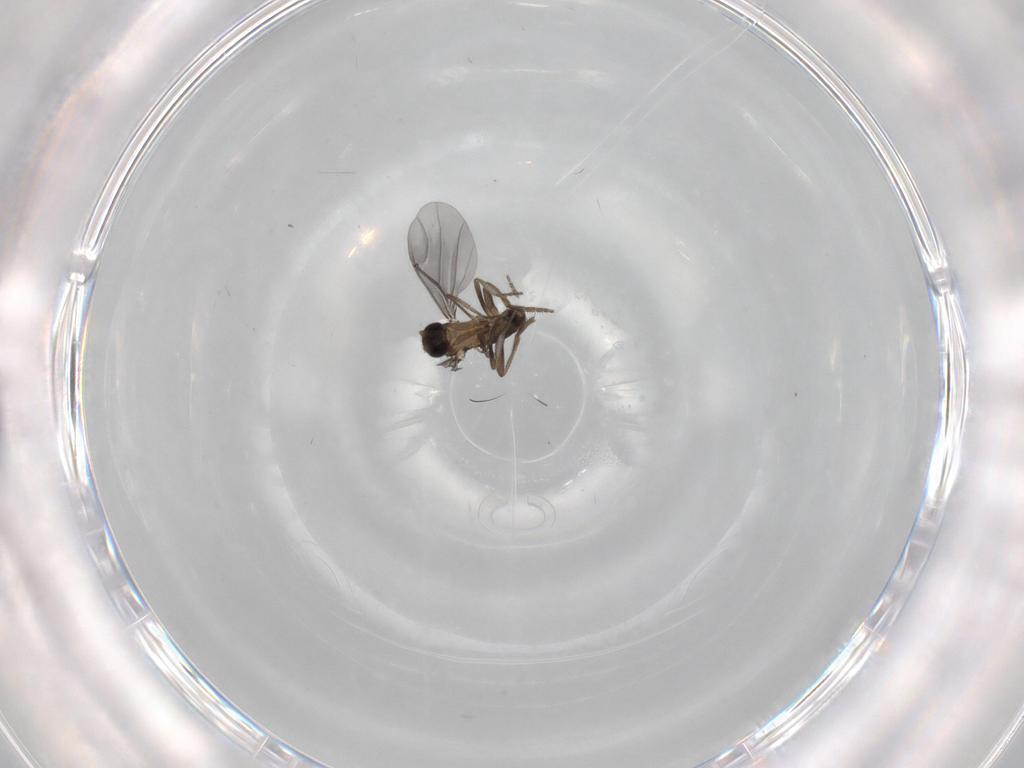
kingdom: Animalia
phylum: Arthropoda
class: Insecta
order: Diptera
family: Phoridae
